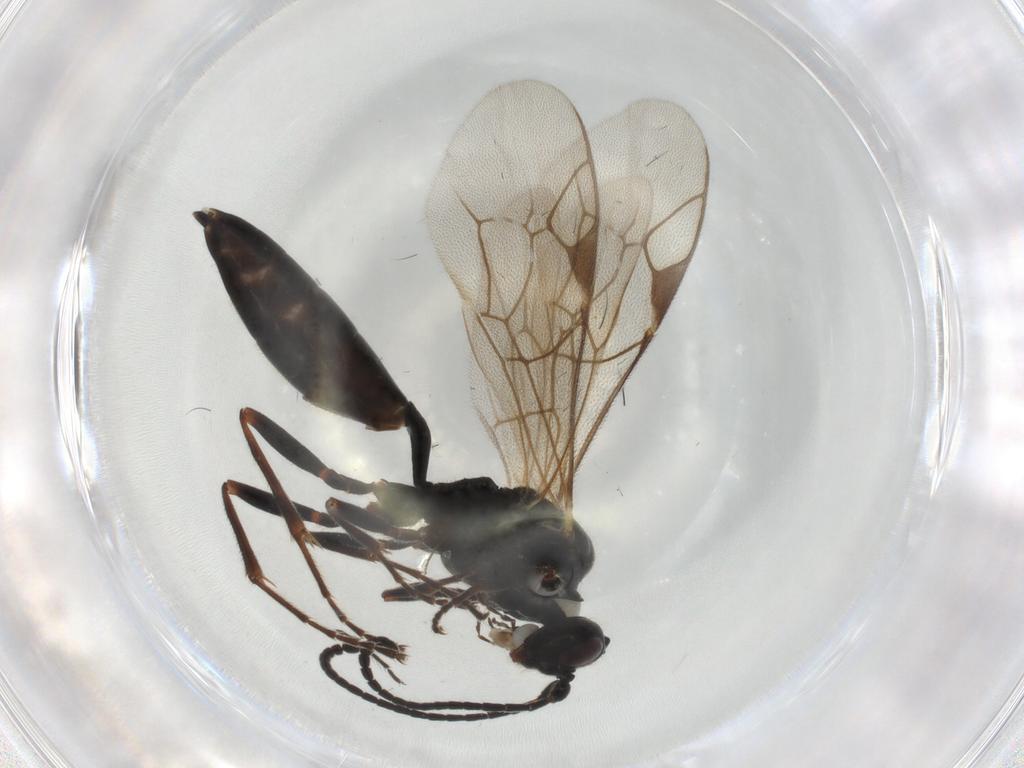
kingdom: Animalia
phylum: Arthropoda
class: Insecta
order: Hymenoptera
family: Ichneumonidae
